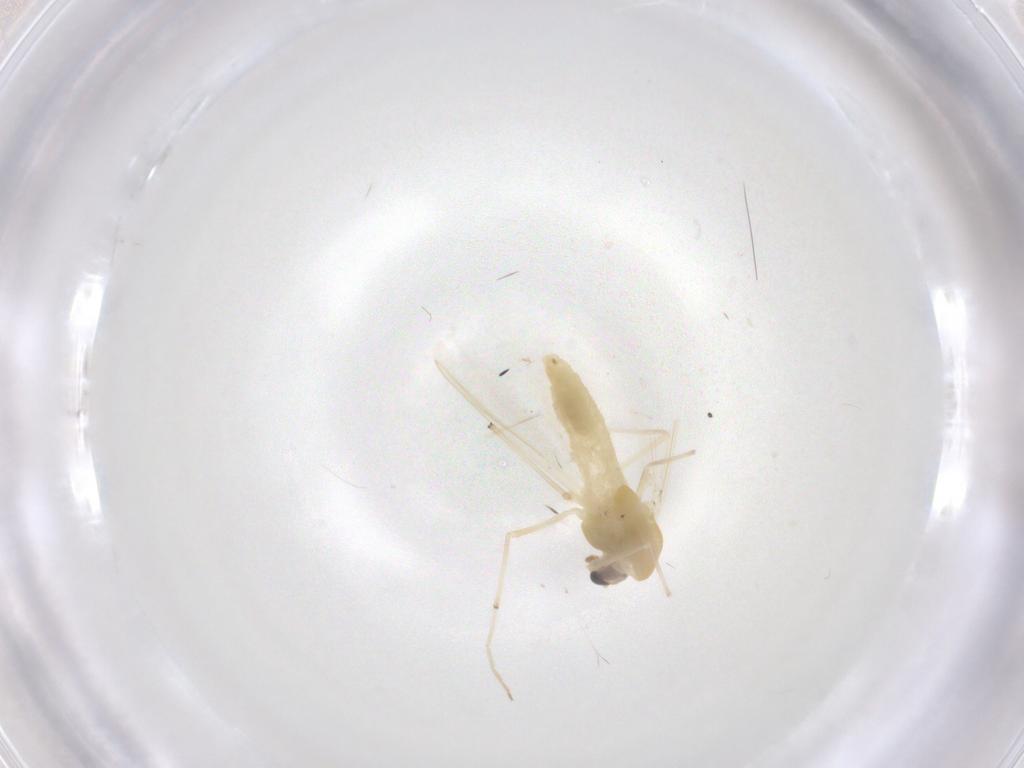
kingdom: Animalia
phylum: Arthropoda
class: Insecta
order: Diptera
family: Chironomidae
